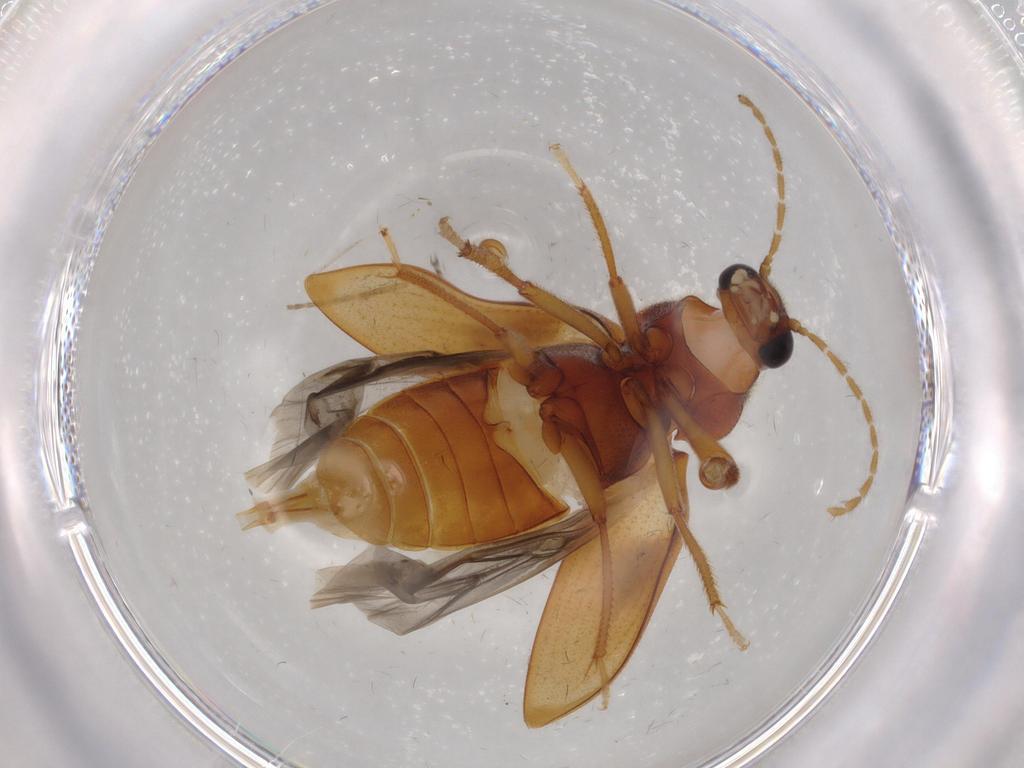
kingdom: Animalia
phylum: Arthropoda
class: Insecta
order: Coleoptera
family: Ptilodactylidae
